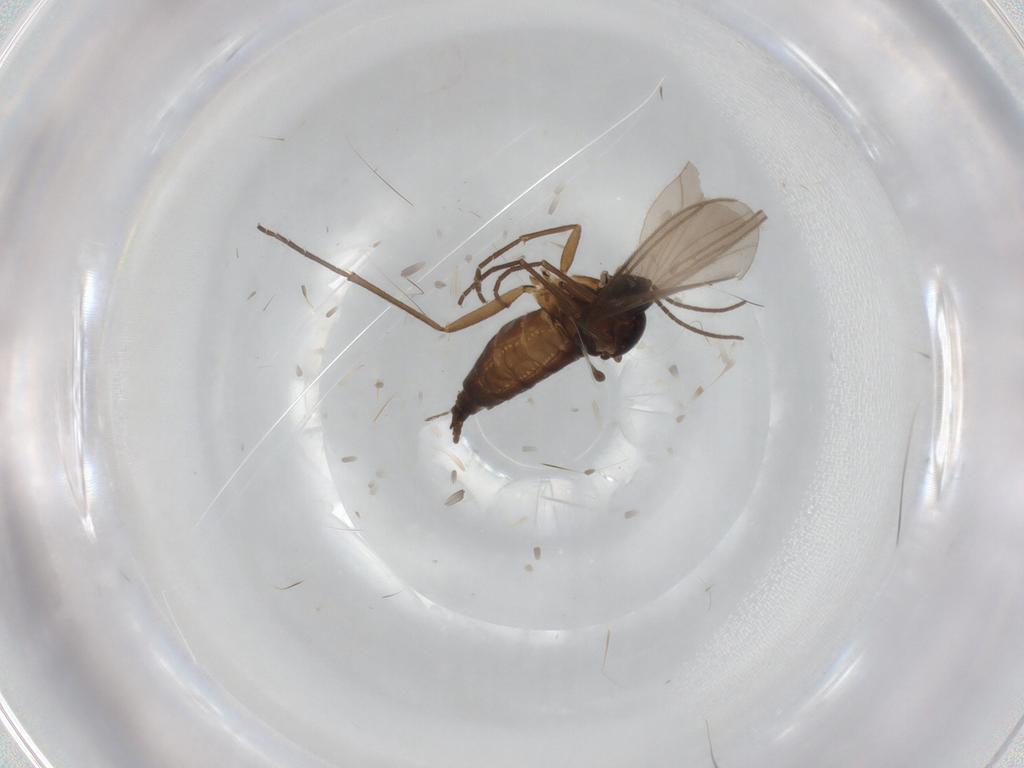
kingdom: Animalia
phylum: Arthropoda
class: Insecta
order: Diptera
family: Sciaridae
